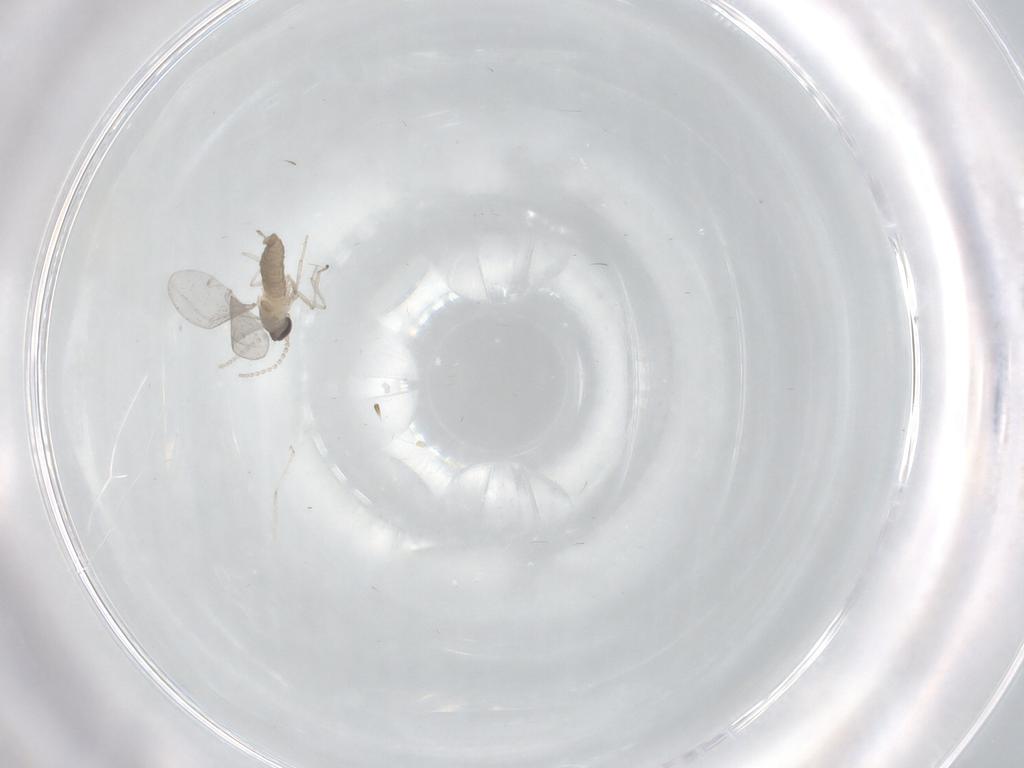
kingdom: Animalia
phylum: Arthropoda
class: Insecta
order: Diptera
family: Cecidomyiidae
